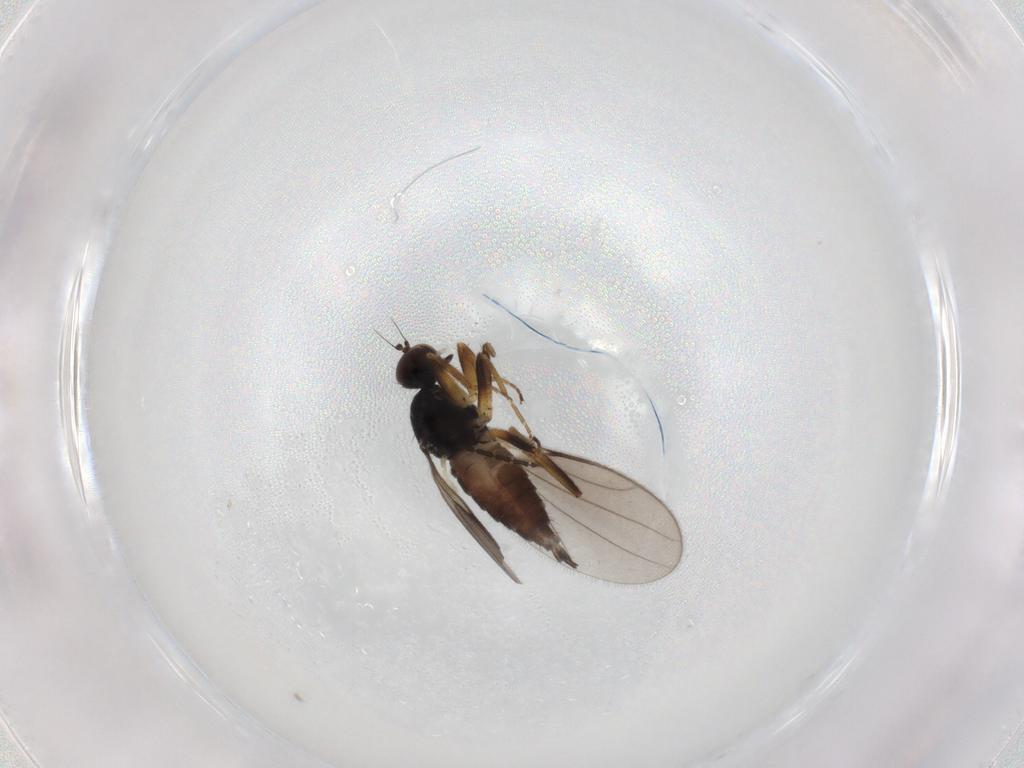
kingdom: Animalia
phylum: Arthropoda
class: Insecta
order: Diptera
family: Hybotidae
